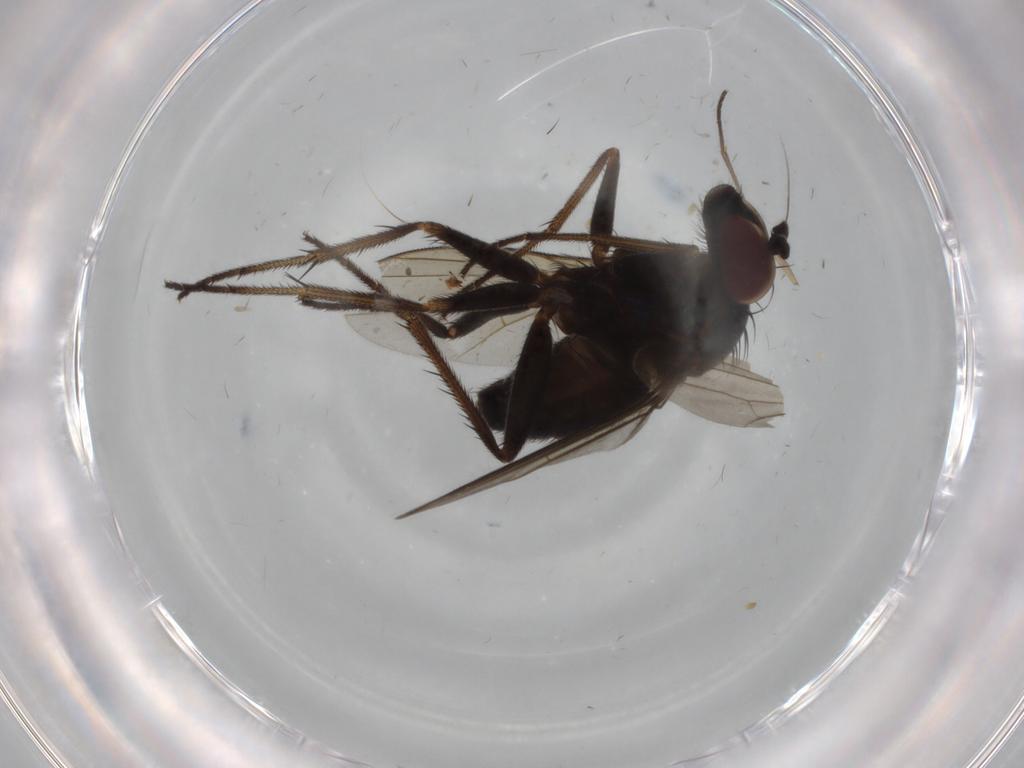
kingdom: Animalia
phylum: Arthropoda
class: Insecta
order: Diptera
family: Dolichopodidae
